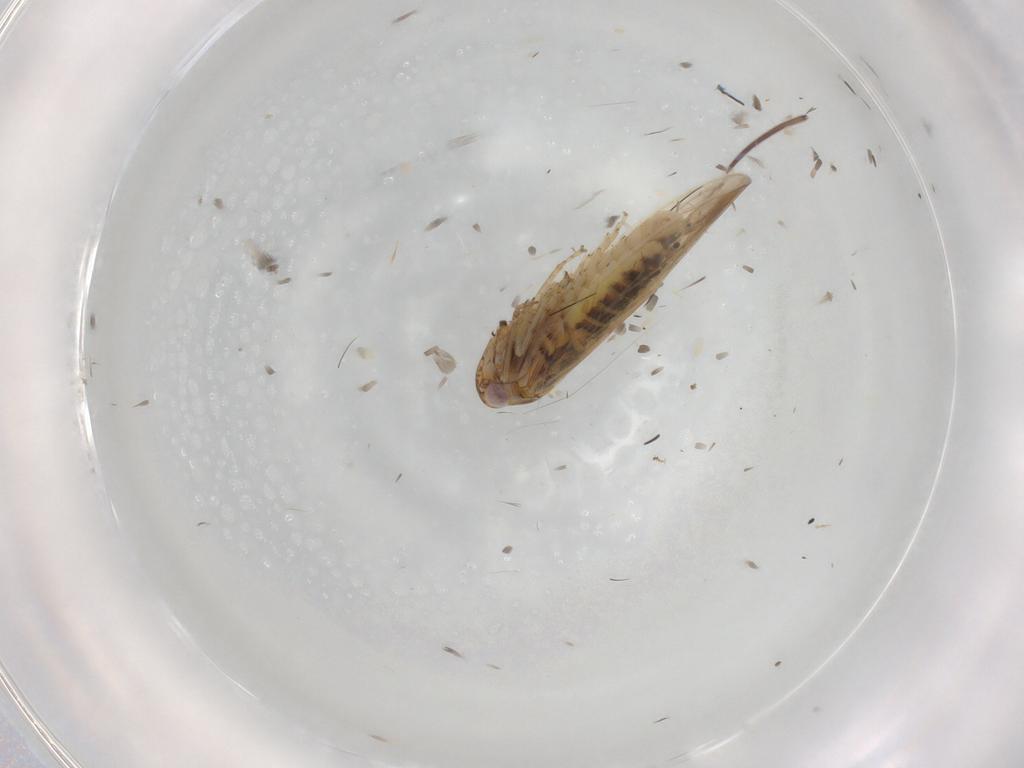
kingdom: Animalia
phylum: Arthropoda
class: Insecta
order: Hemiptera
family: Cicadellidae
